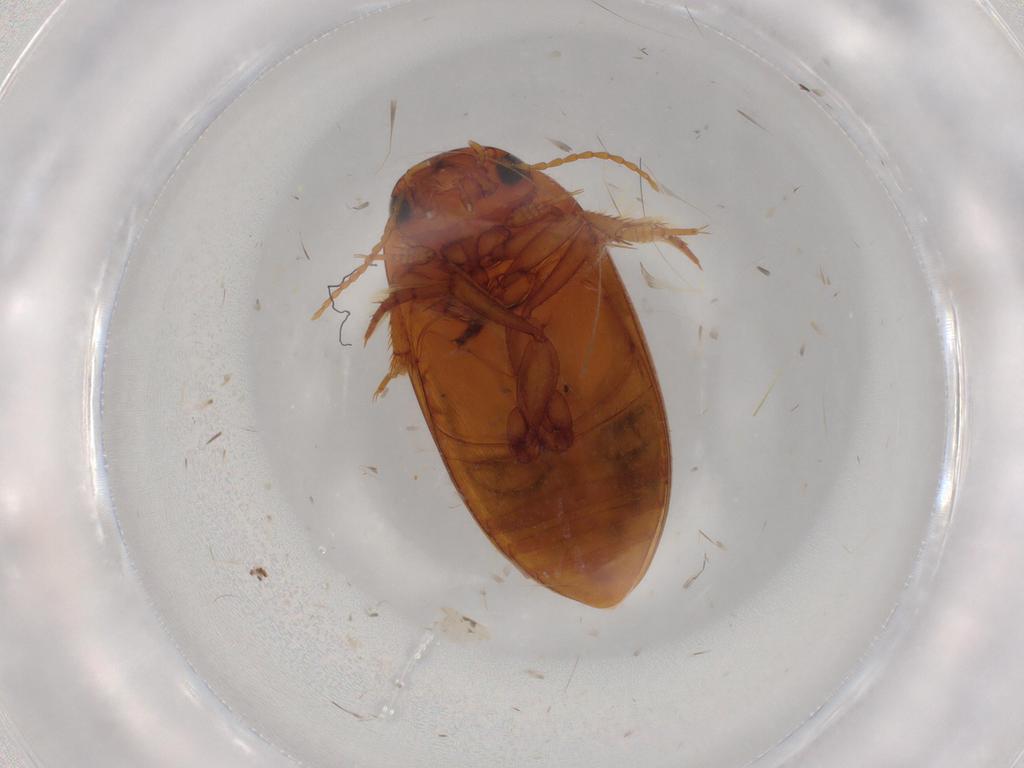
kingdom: Animalia
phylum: Arthropoda
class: Insecta
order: Coleoptera
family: Dytiscidae
